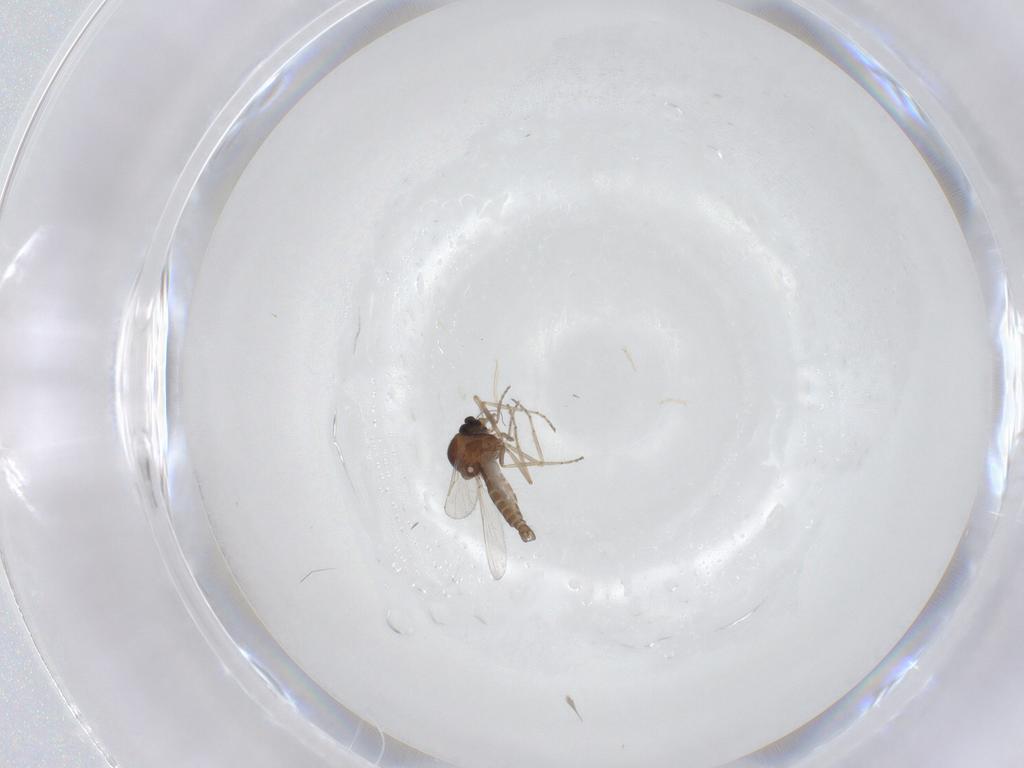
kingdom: Animalia
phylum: Arthropoda
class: Insecta
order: Diptera
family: Ceratopogonidae
